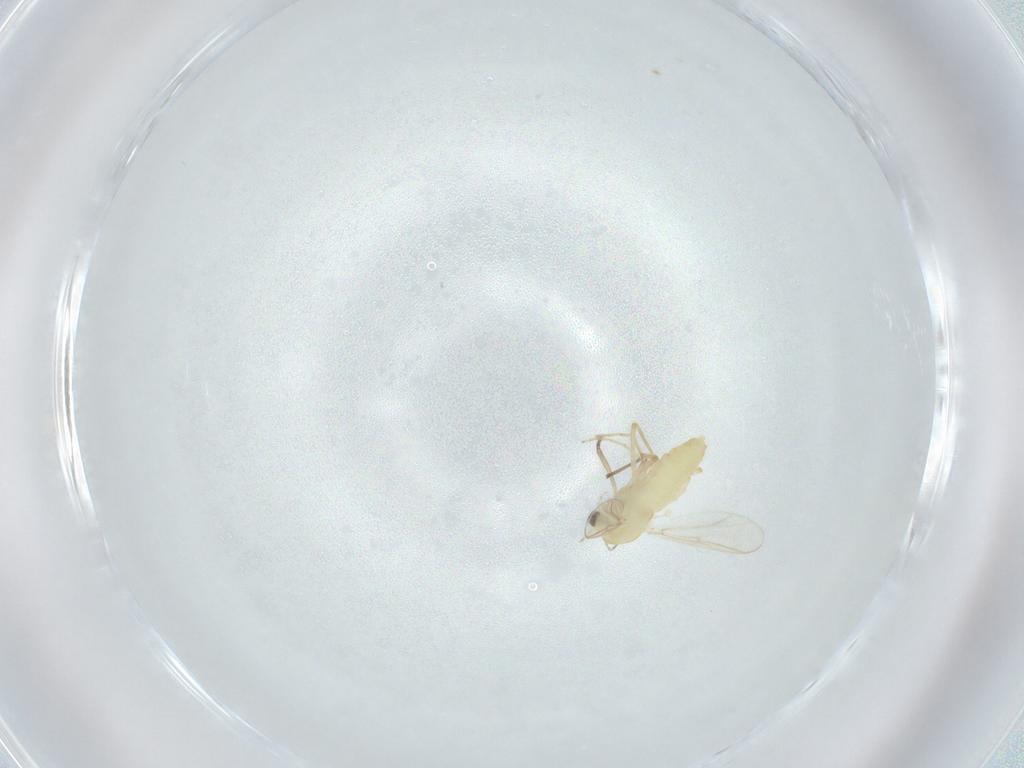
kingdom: Animalia
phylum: Arthropoda
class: Insecta
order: Diptera
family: Chironomidae
